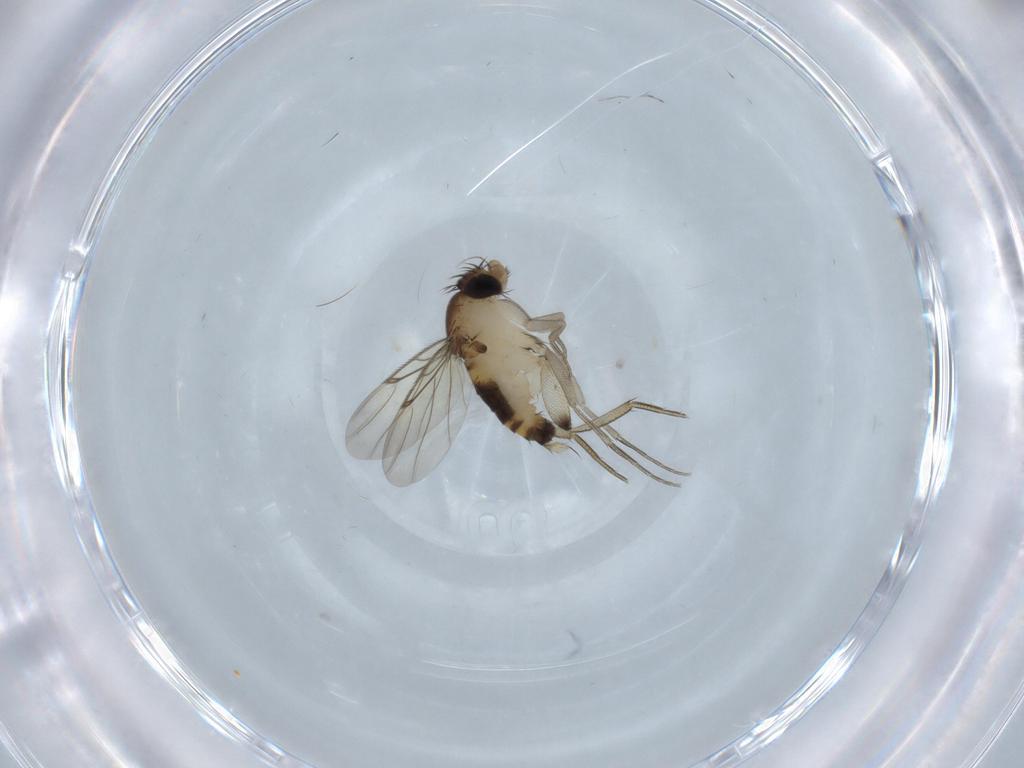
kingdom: Animalia
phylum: Arthropoda
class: Insecta
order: Diptera
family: Phoridae
